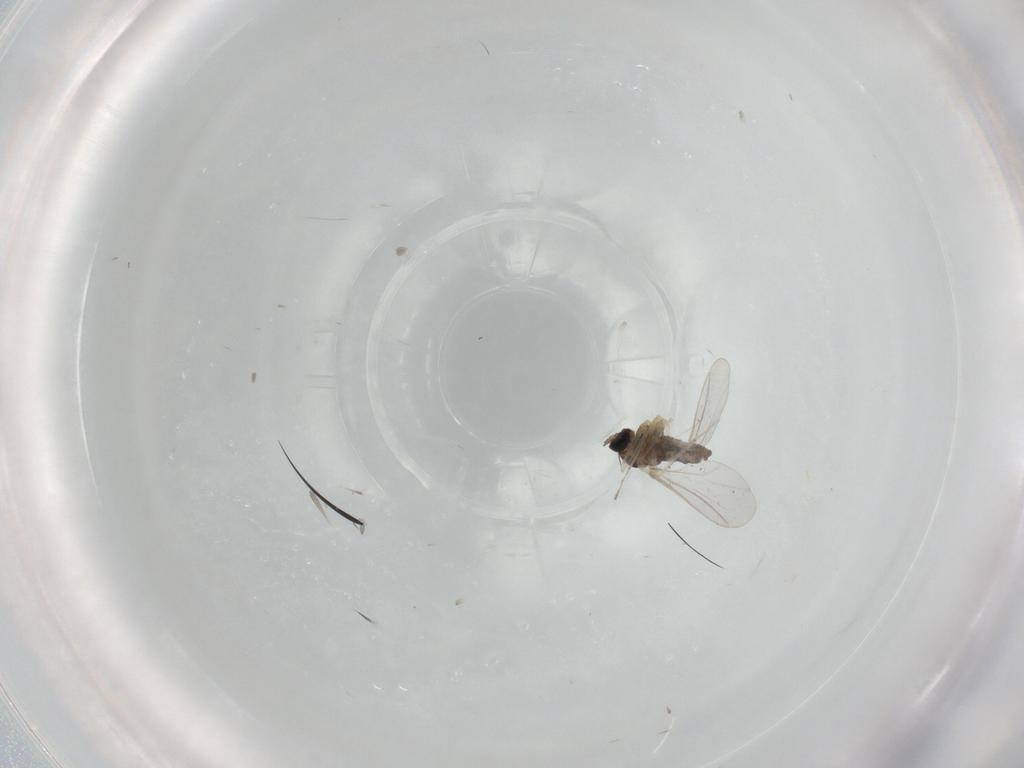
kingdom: Animalia
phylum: Arthropoda
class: Insecta
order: Diptera
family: Cecidomyiidae
